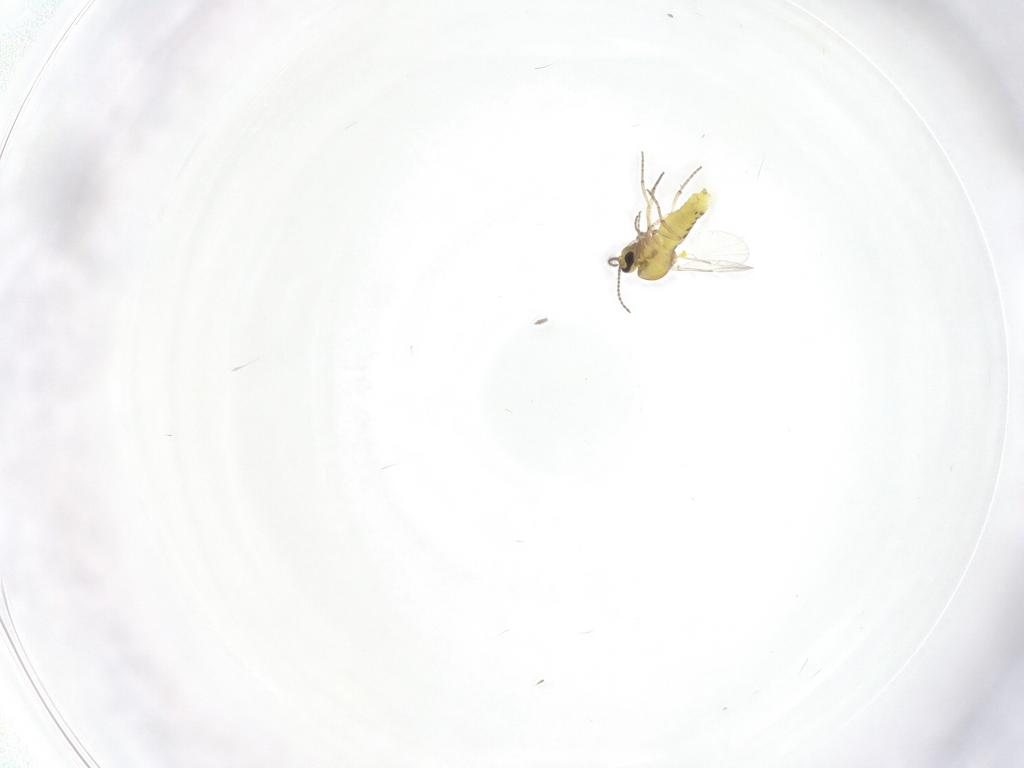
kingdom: Animalia
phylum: Arthropoda
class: Insecta
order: Diptera
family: Ceratopogonidae
